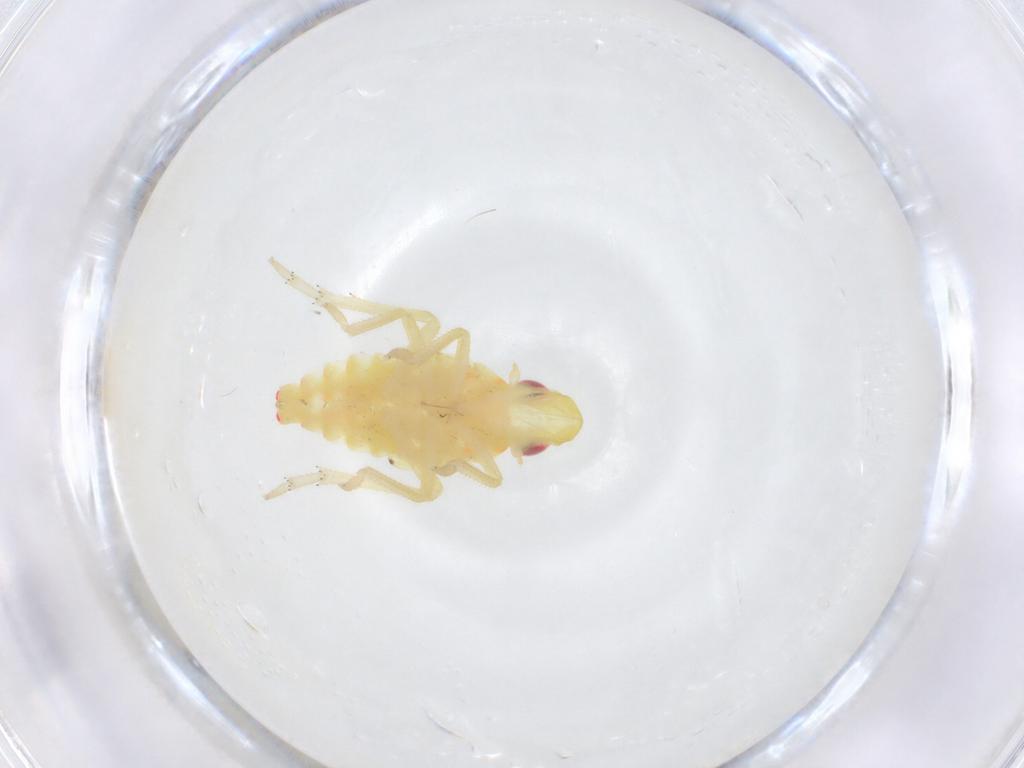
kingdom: Animalia
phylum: Arthropoda
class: Insecta
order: Hemiptera
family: Tropiduchidae
